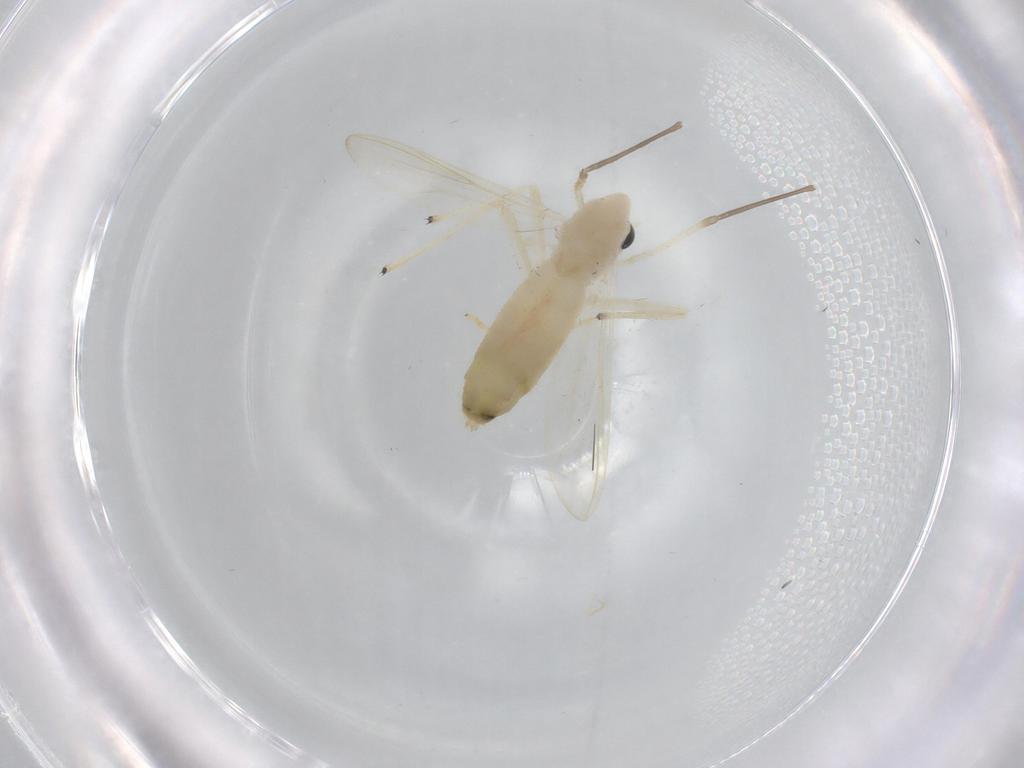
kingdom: Animalia
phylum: Arthropoda
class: Insecta
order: Diptera
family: Chironomidae
